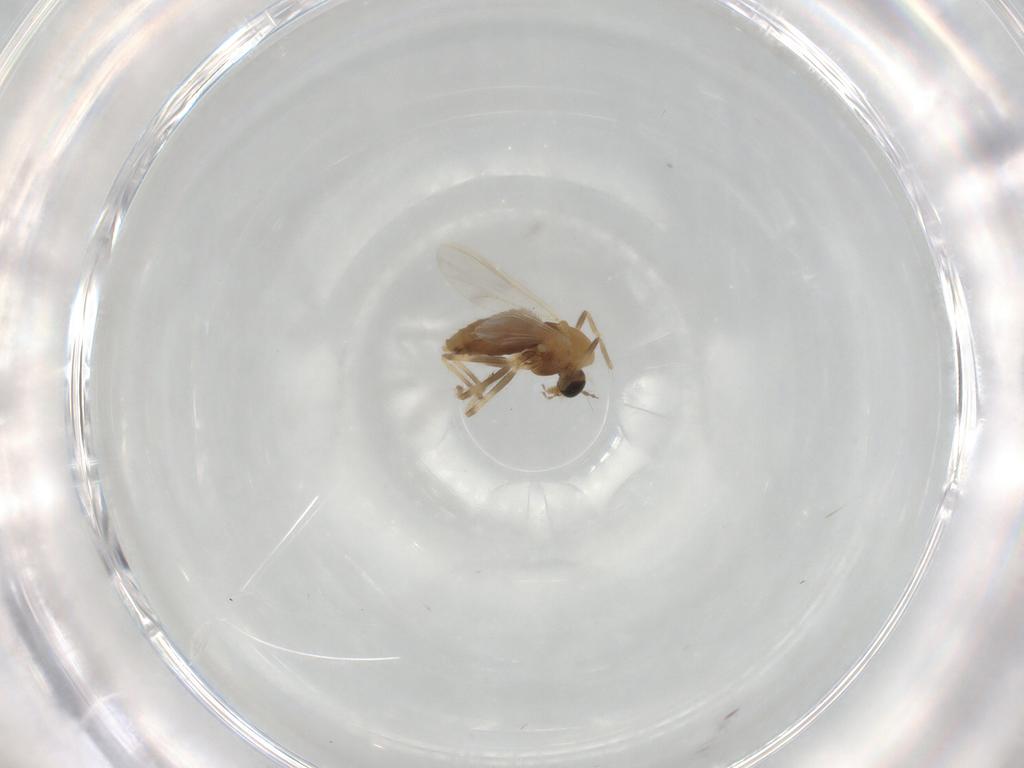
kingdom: Animalia
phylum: Arthropoda
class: Insecta
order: Diptera
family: Chironomidae
